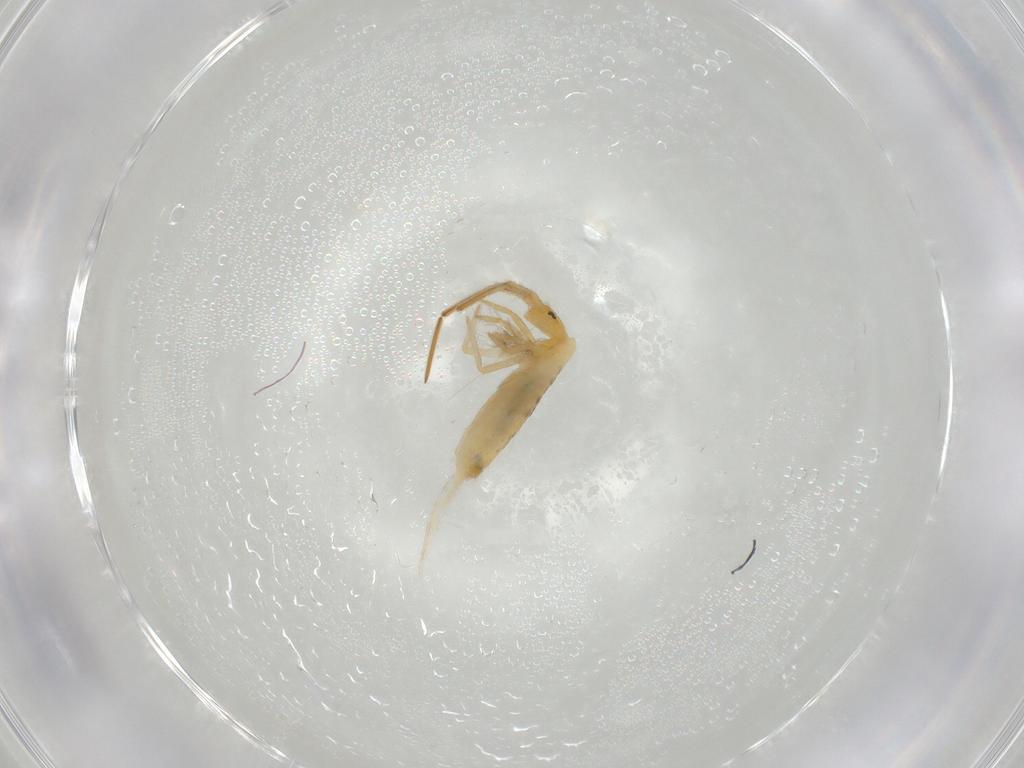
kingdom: Animalia
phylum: Arthropoda
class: Collembola
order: Entomobryomorpha
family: Entomobryidae
